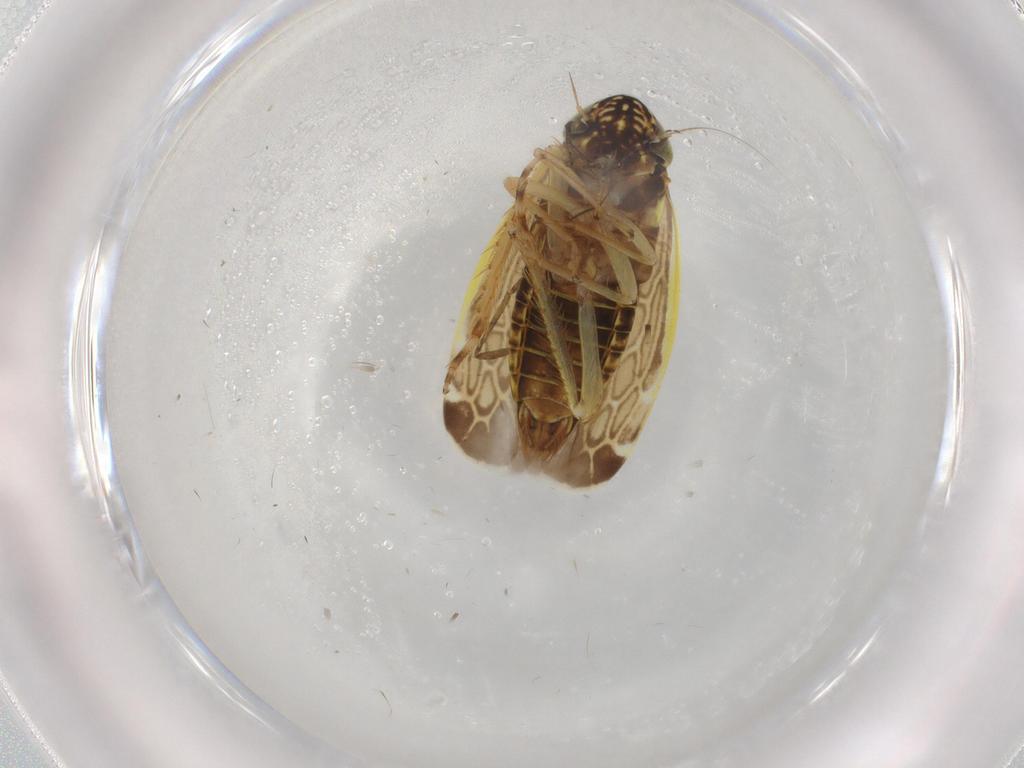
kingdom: Animalia
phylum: Arthropoda
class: Insecta
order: Hemiptera
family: Cicadellidae
